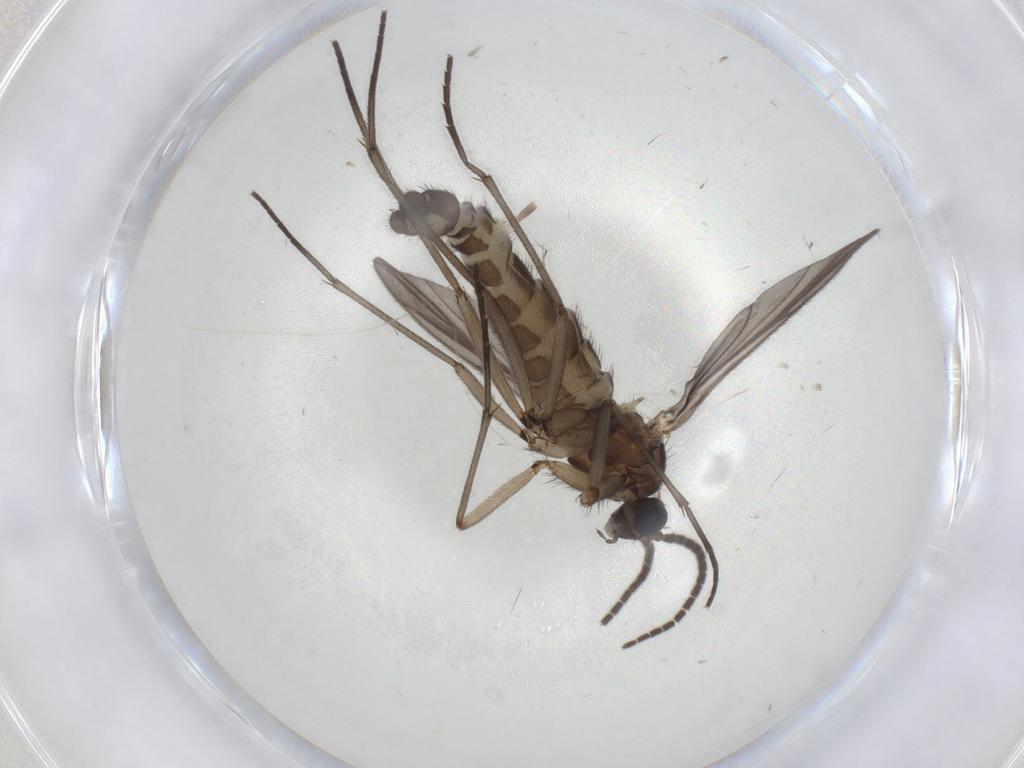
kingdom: Animalia
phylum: Arthropoda
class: Insecta
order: Diptera
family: Sciaridae
